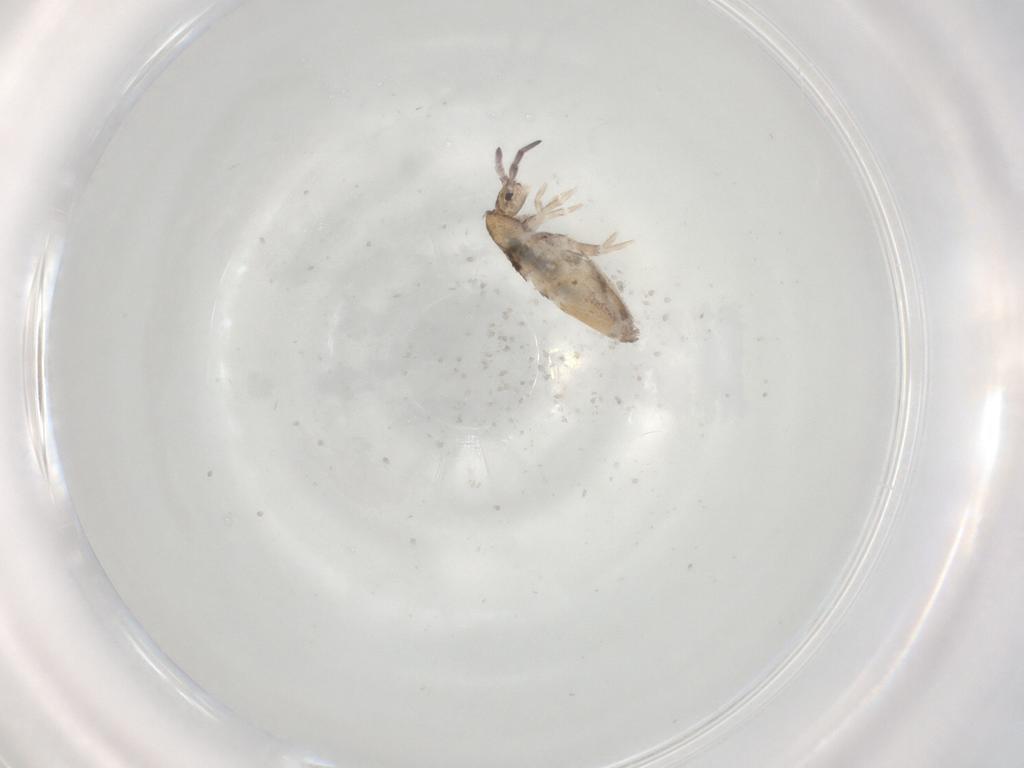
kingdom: Animalia
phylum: Arthropoda
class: Collembola
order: Entomobryomorpha
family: Entomobryidae
